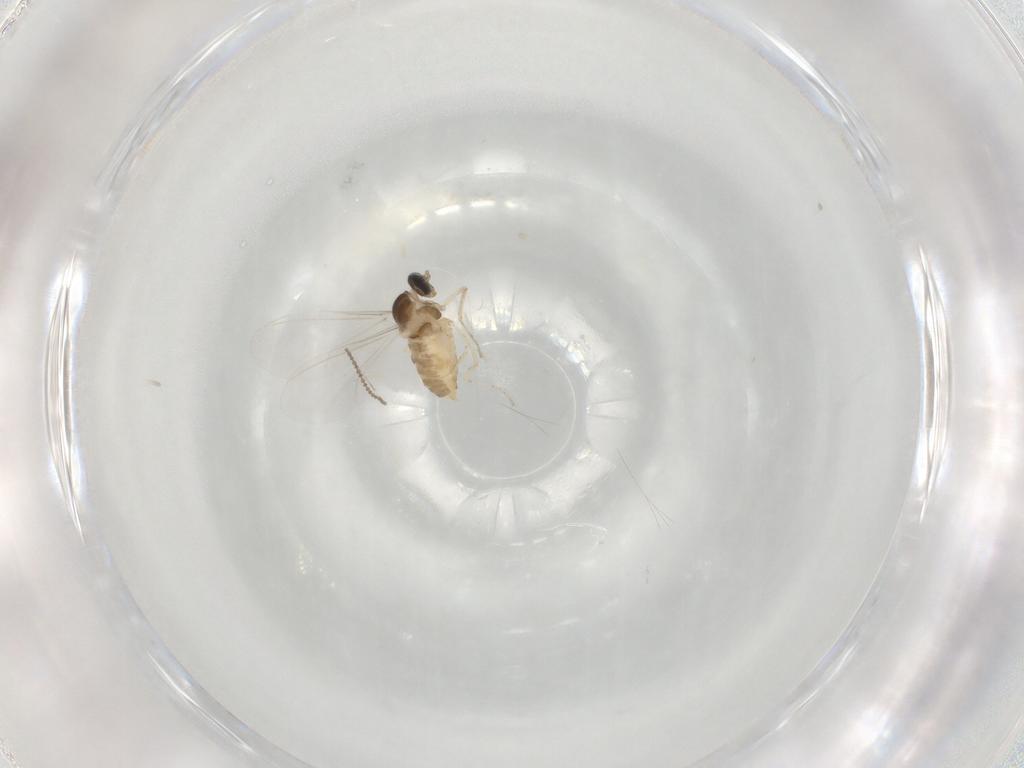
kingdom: Animalia
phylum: Arthropoda
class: Insecta
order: Diptera
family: Cecidomyiidae
